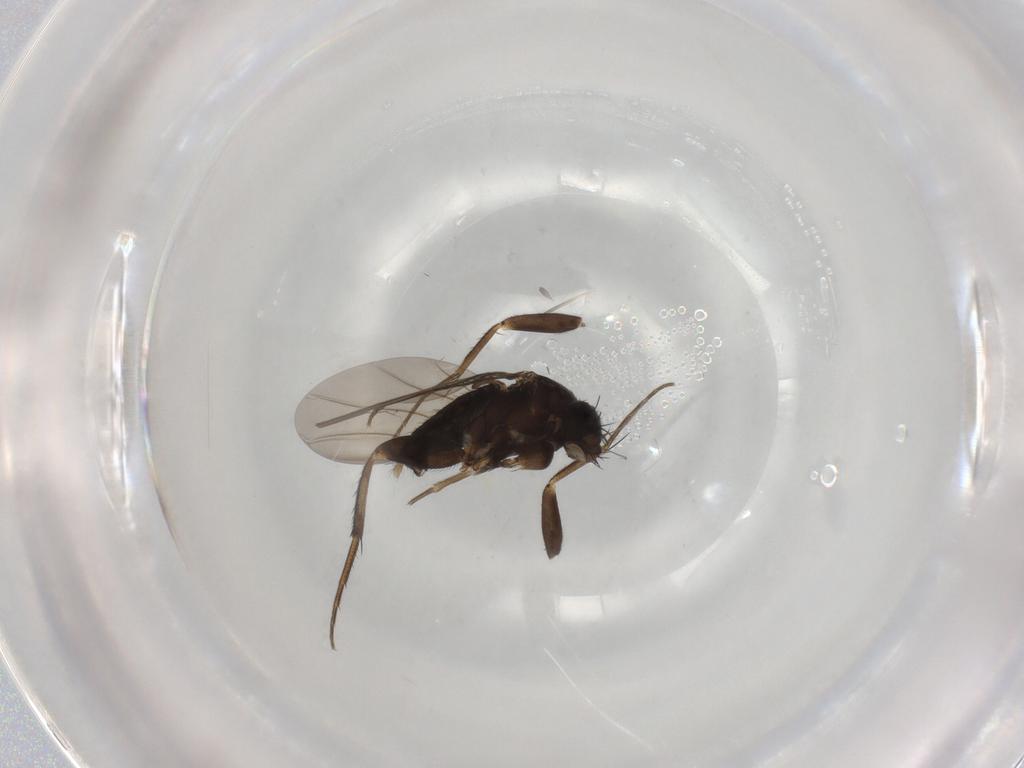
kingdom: Animalia
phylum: Arthropoda
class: Insecta
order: Diptera
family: Phoridae
